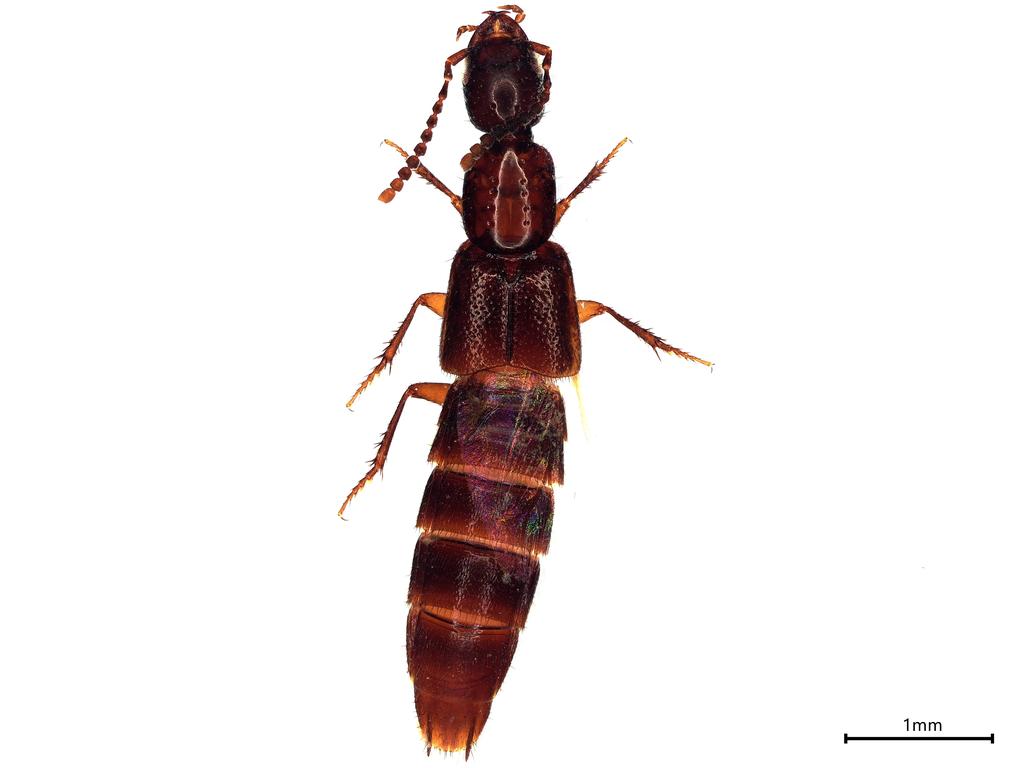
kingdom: Animalia
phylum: Arthropoda
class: Insecta
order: Coleoptera
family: Staphylinidae
